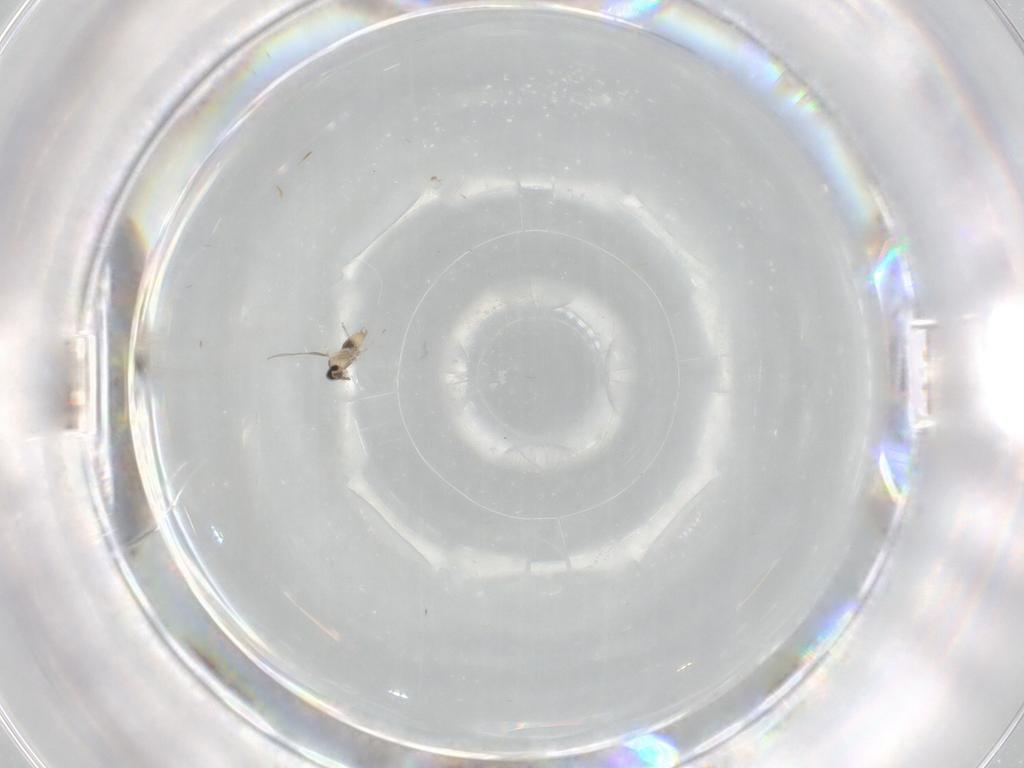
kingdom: Animalia
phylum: Arthropoda
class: Insecta
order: Diptera
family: Cecidomyiidae
